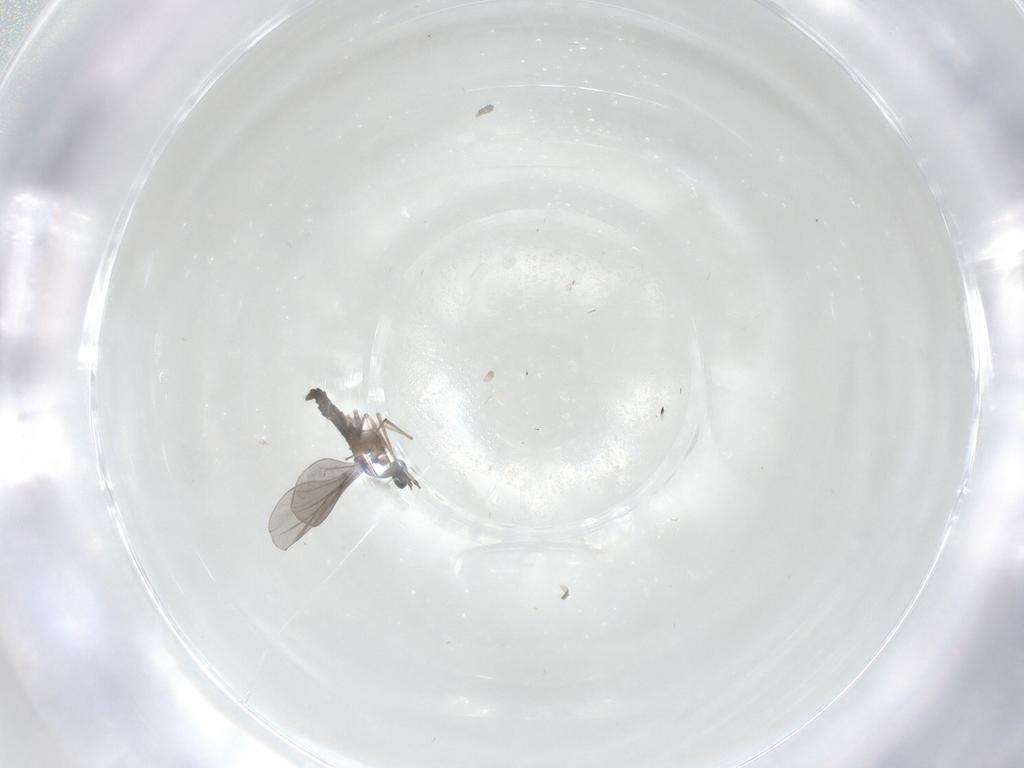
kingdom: Animalia
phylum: Arthropoda
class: Insecta
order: Diptera
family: Cecidomyiidae
